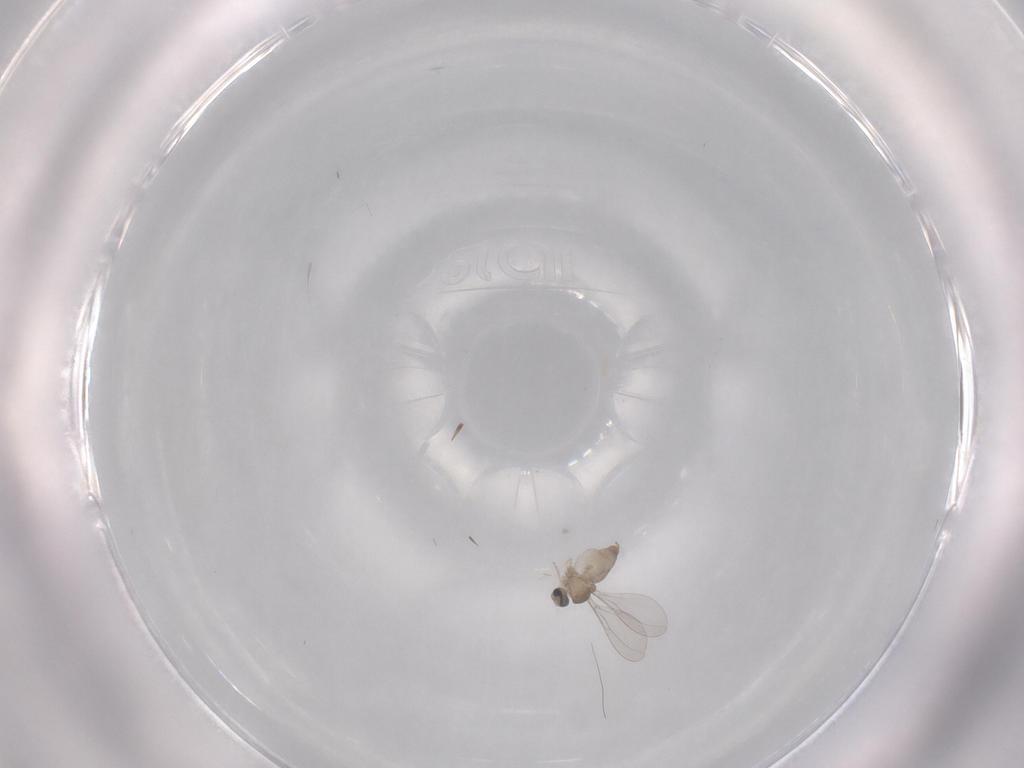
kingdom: Animalia
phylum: Arthropoda
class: Insecta
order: Diptera
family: Cecidomyiidae
